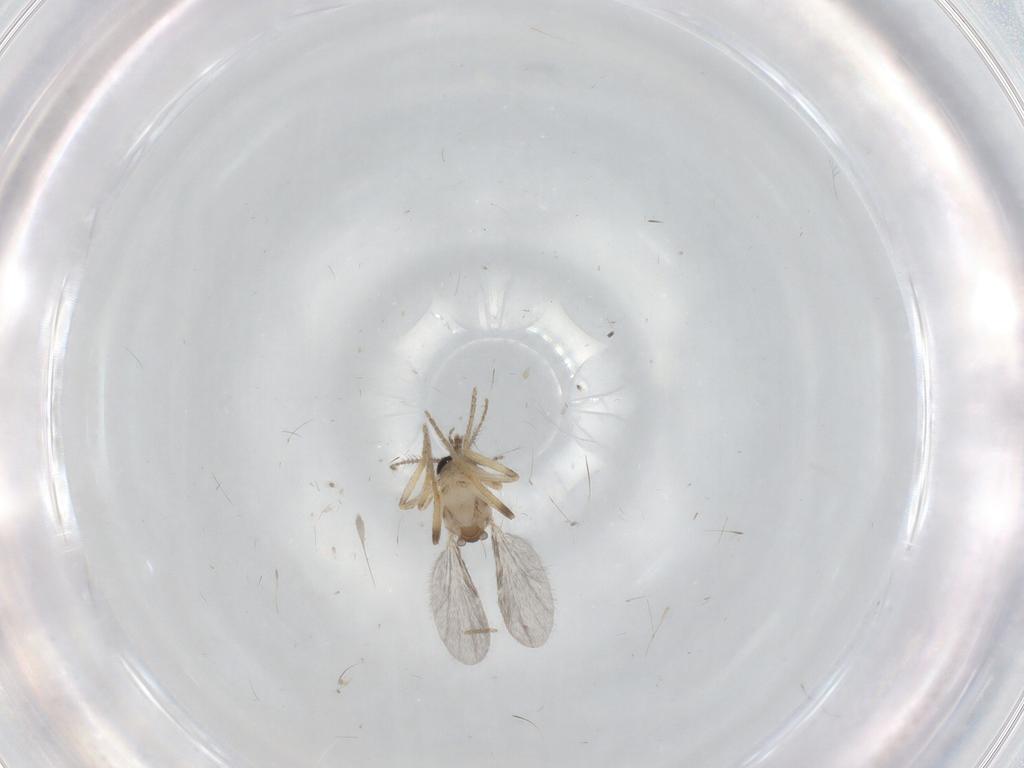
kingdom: Animalia
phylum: Arthropoda
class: Insecta
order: Diptera
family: Ceratopogonidae
